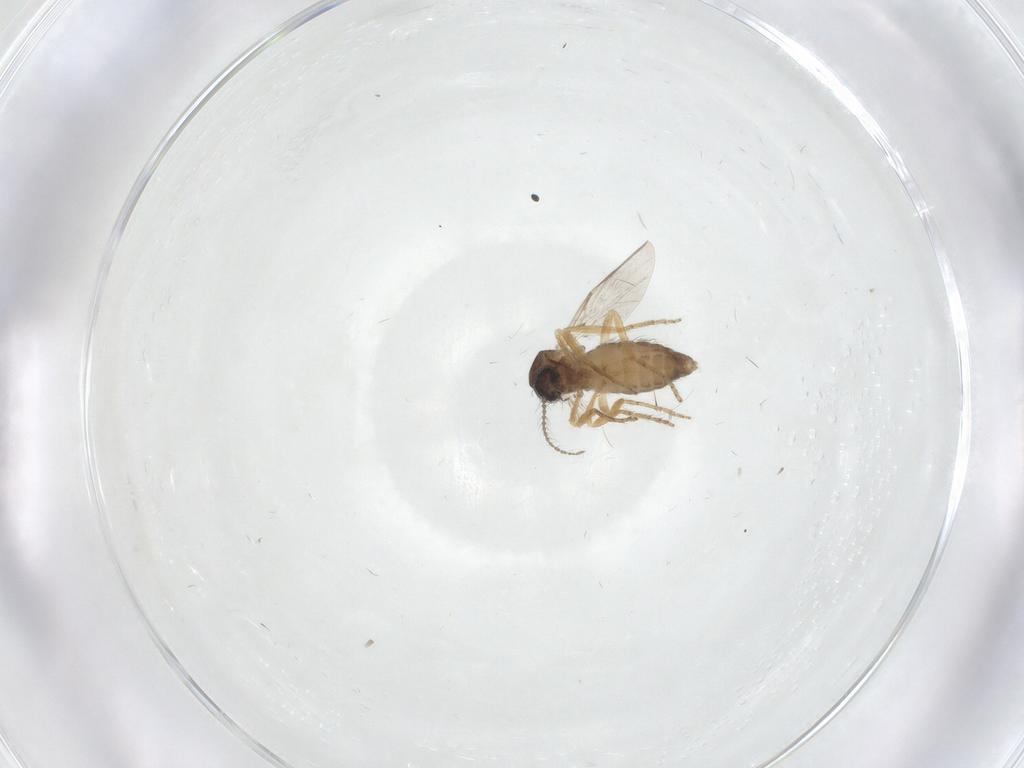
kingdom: Animalia
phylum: Arthropoda
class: Insecta
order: Diptera
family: Ceratopogonidae
